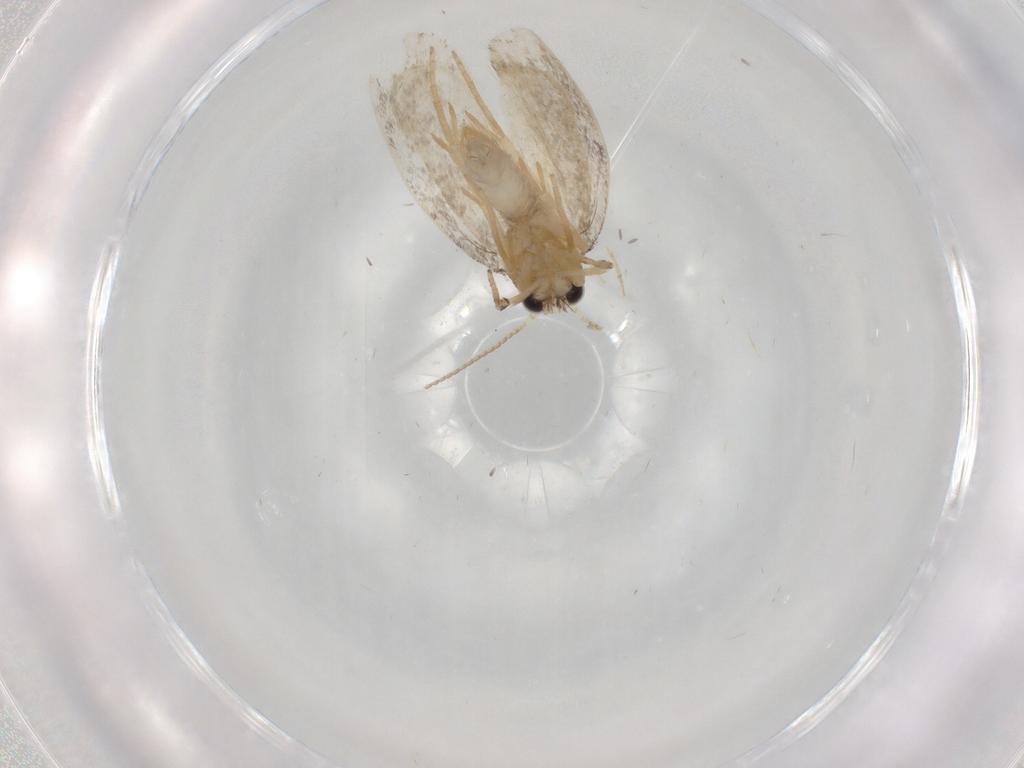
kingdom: Animalia
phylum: Arthropoda
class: Insecta
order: Lepidoptera
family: Psychidae
